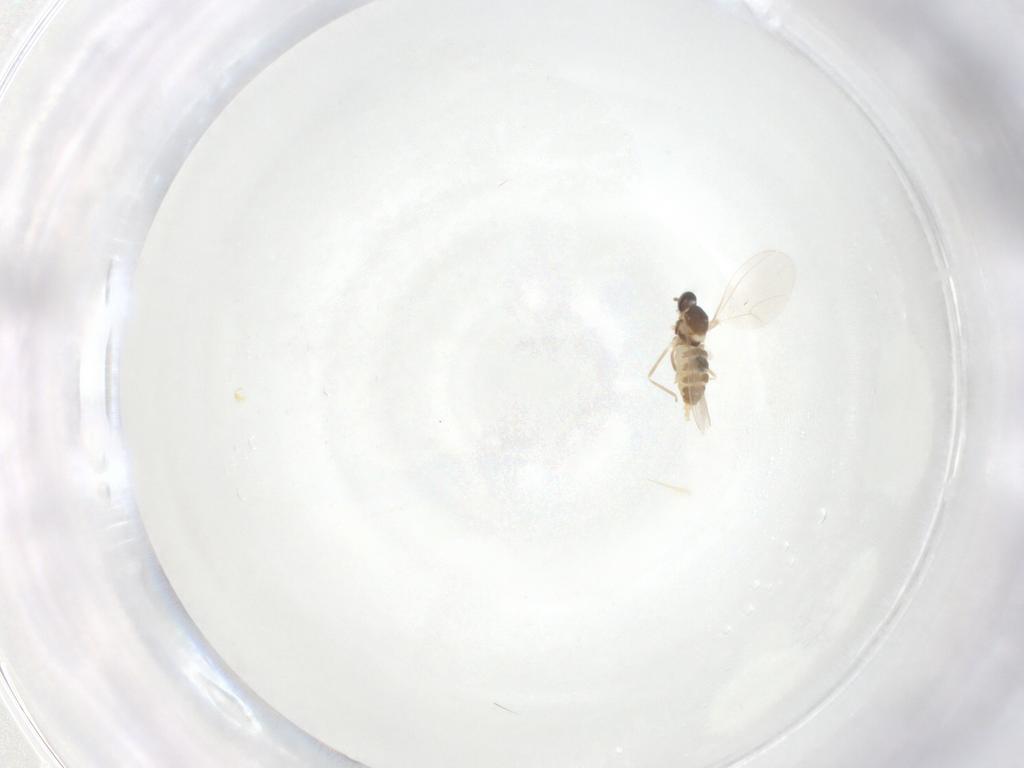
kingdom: Animalia
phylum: Arthropoda
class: Insecta
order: Diptera
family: Cecidomyiidae
